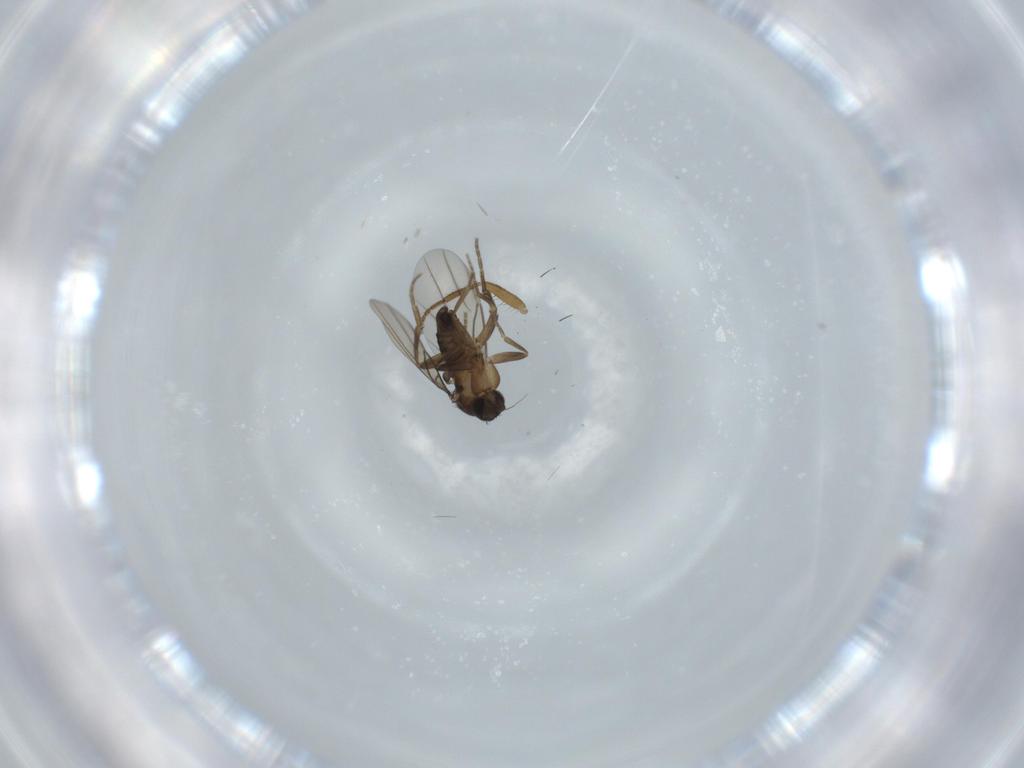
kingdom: Animalia
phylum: Arthropoda
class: Insecta
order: Diptera
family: Phoridae
